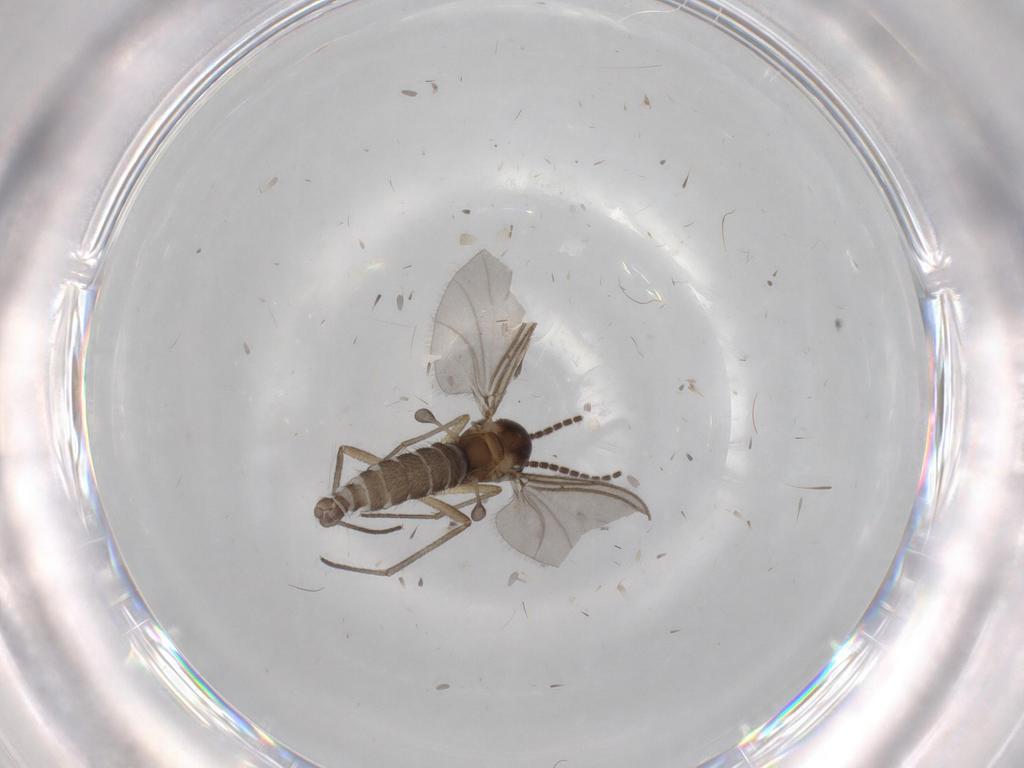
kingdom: Animalia
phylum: Arthropoda
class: Insecta
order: Diptera
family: Sciaridae
